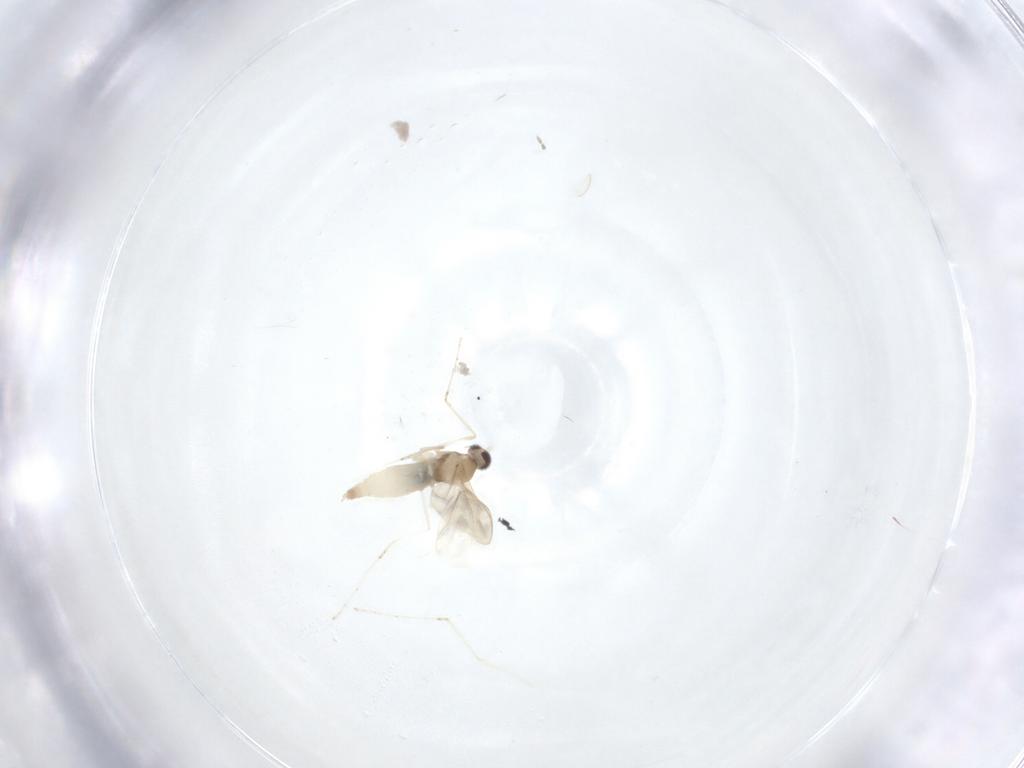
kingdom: Animalia
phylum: Arthropoda
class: Insecta
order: Diptera
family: Cecidomyiidae
